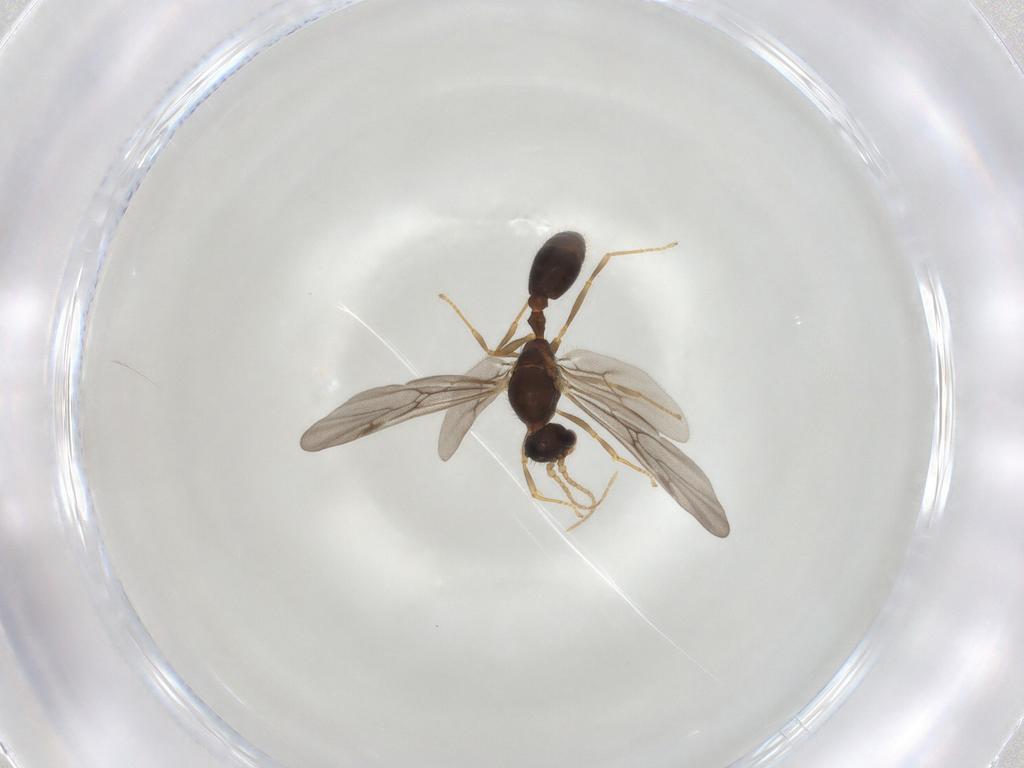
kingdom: Animalia
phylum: Arthropoda
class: Insecta
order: Hymenoptera
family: Formicidae
